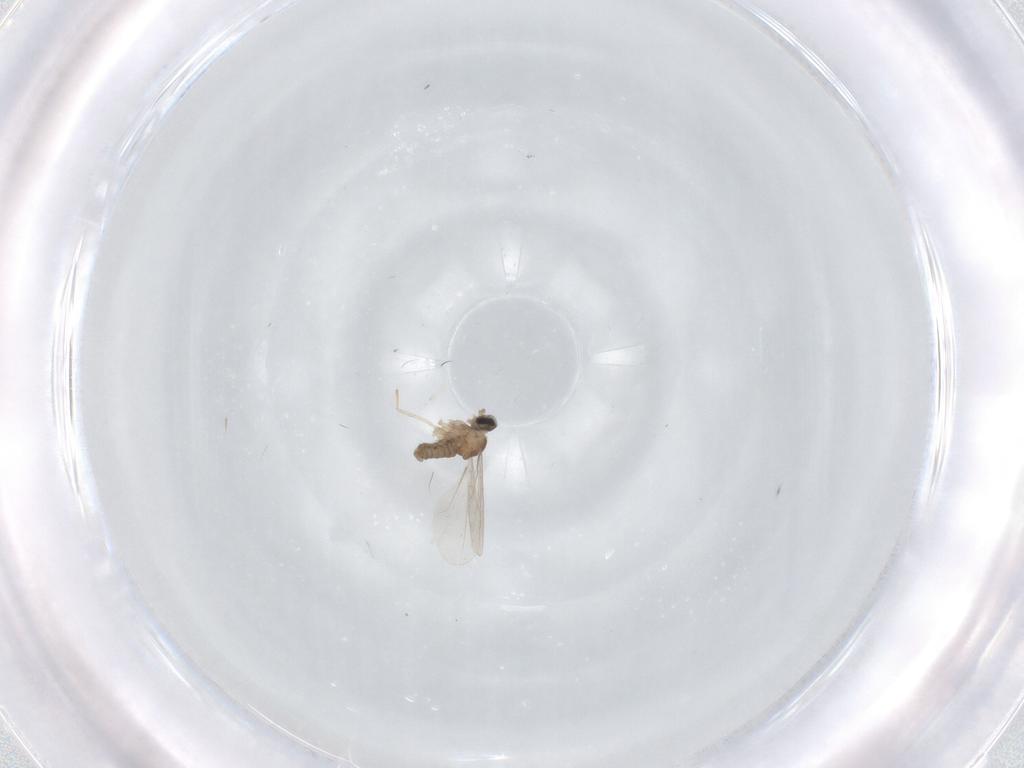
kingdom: Animalia
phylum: Arthropoda
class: Insecta
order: Diptera
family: Cecidomyiidae
